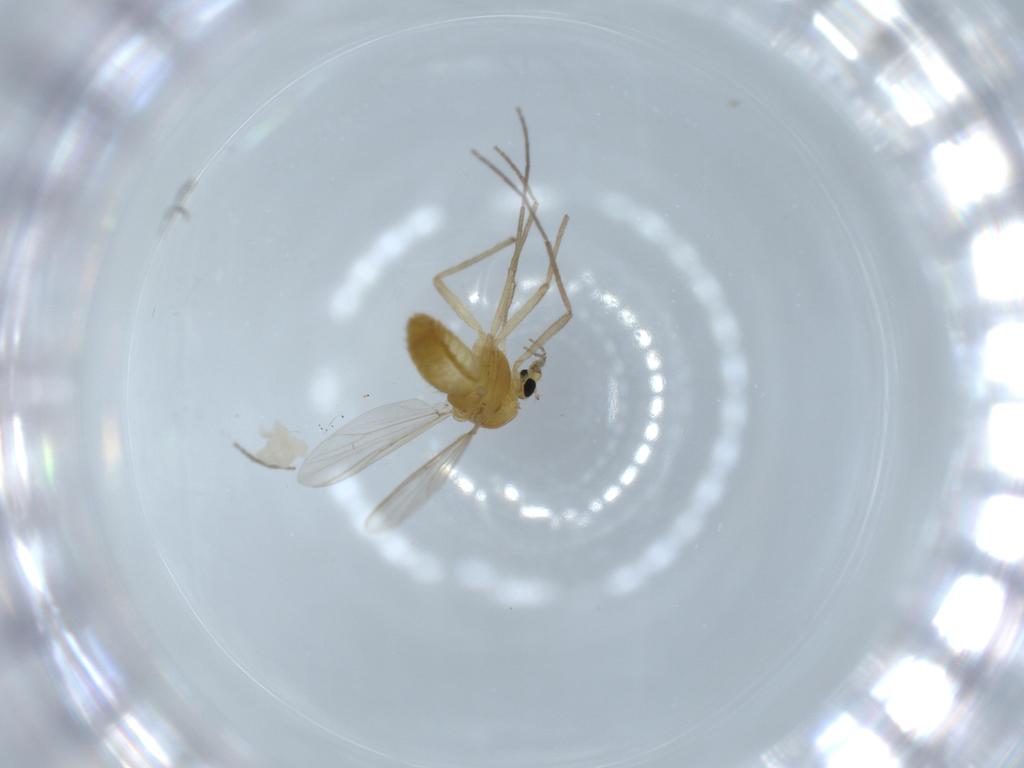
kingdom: Animalia
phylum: Arthropoda
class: Insecta
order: Diptera
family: Chironomidae
